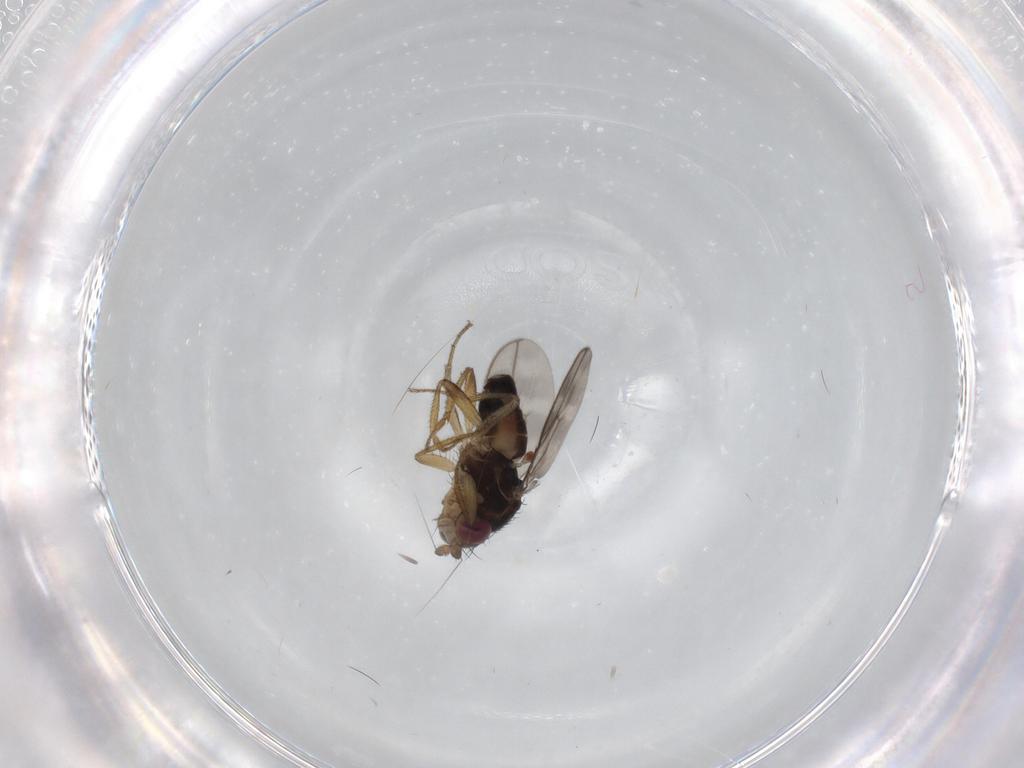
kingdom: Animalia
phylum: Arthropoda
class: Insecta
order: Diptera
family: Sphaeroceridae
